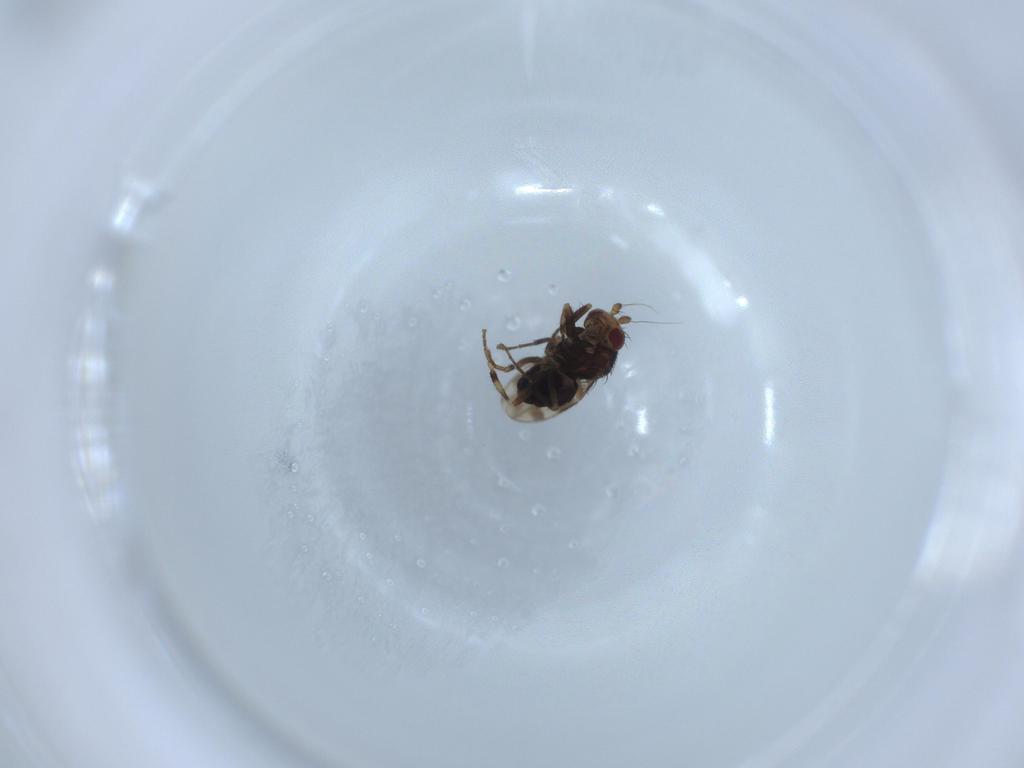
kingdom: Animalia
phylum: Arthropoda
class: Insecta
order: Diptera
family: Sphaeroceridae
